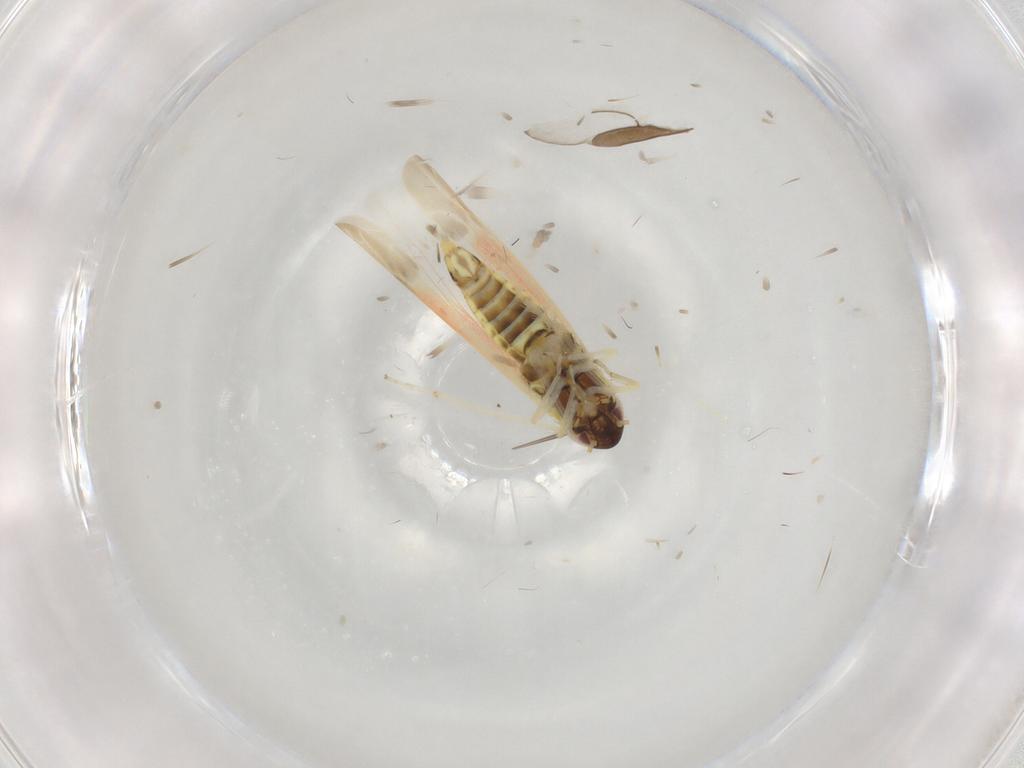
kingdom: Animalia
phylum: Arthropoda
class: Insecta
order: Hemiptera
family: Cicadellidae
